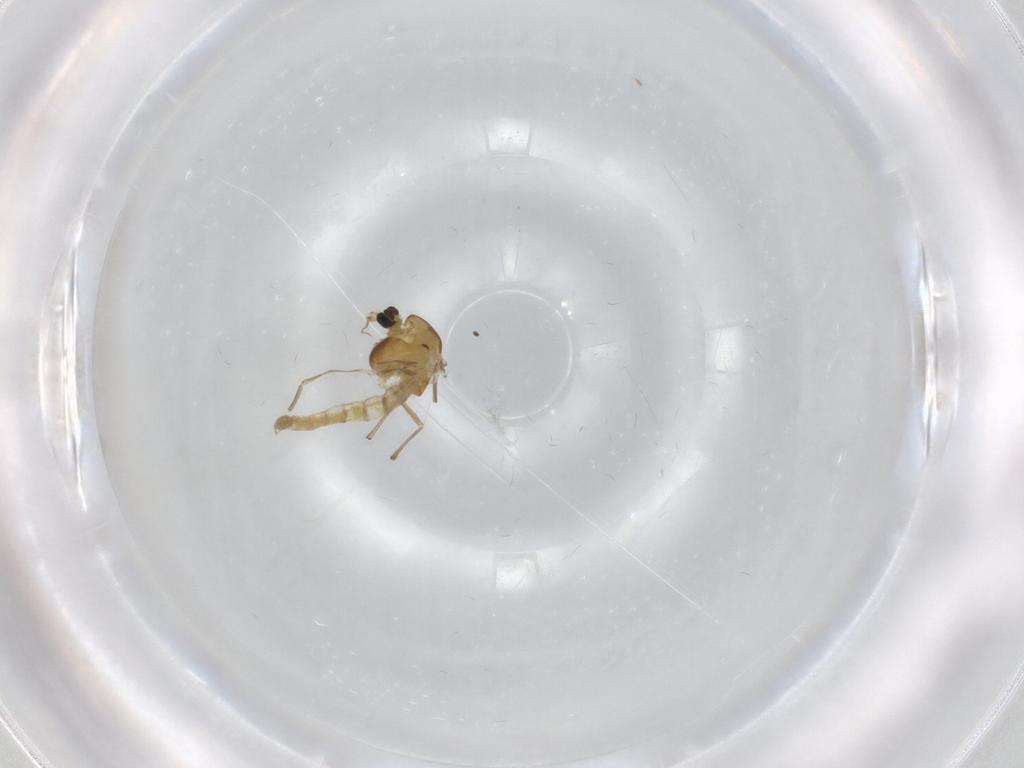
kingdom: Animalia
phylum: Arthropoda
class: Insecta
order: Diptera
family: Chironomidae
